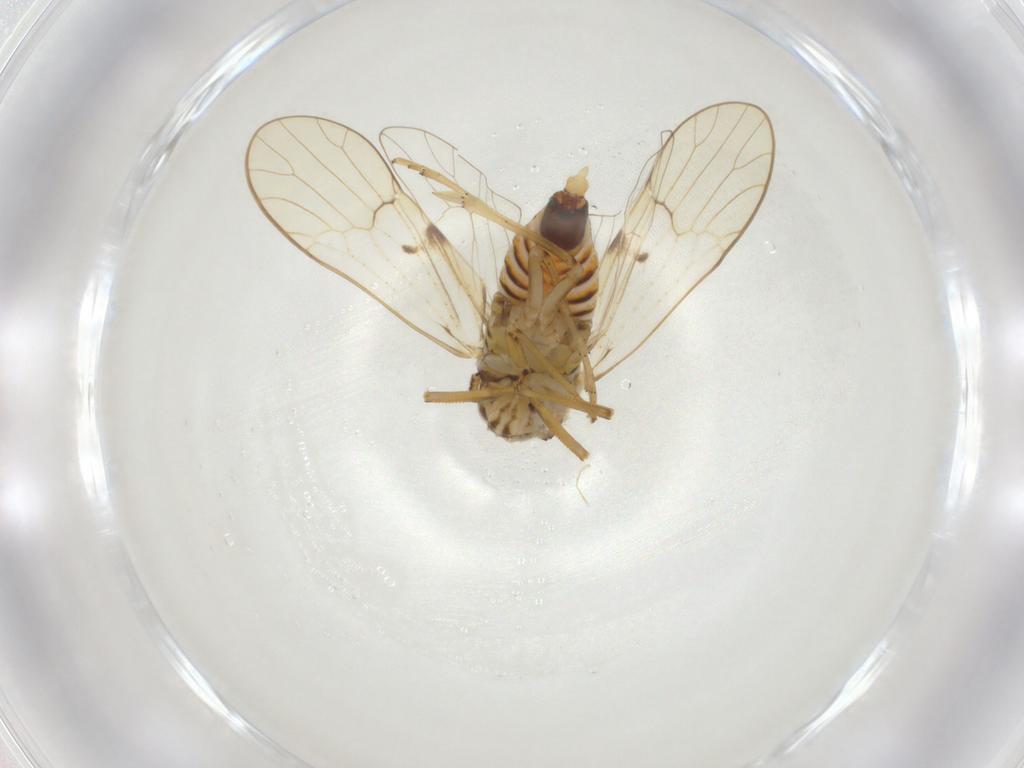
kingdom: Animalia
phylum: Arthropoda
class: Insecta
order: Hemiptera
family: Delphacidae
